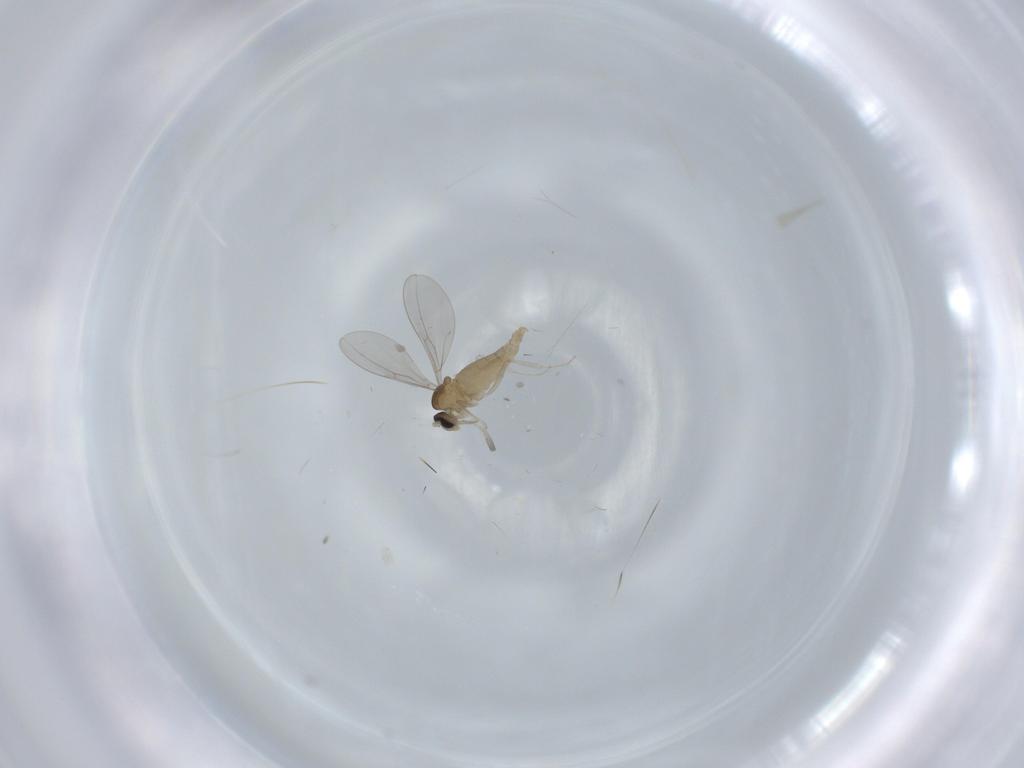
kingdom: Animalia
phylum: Arthropoda
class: Insecta
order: Diptera
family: Cecidomyiidae
